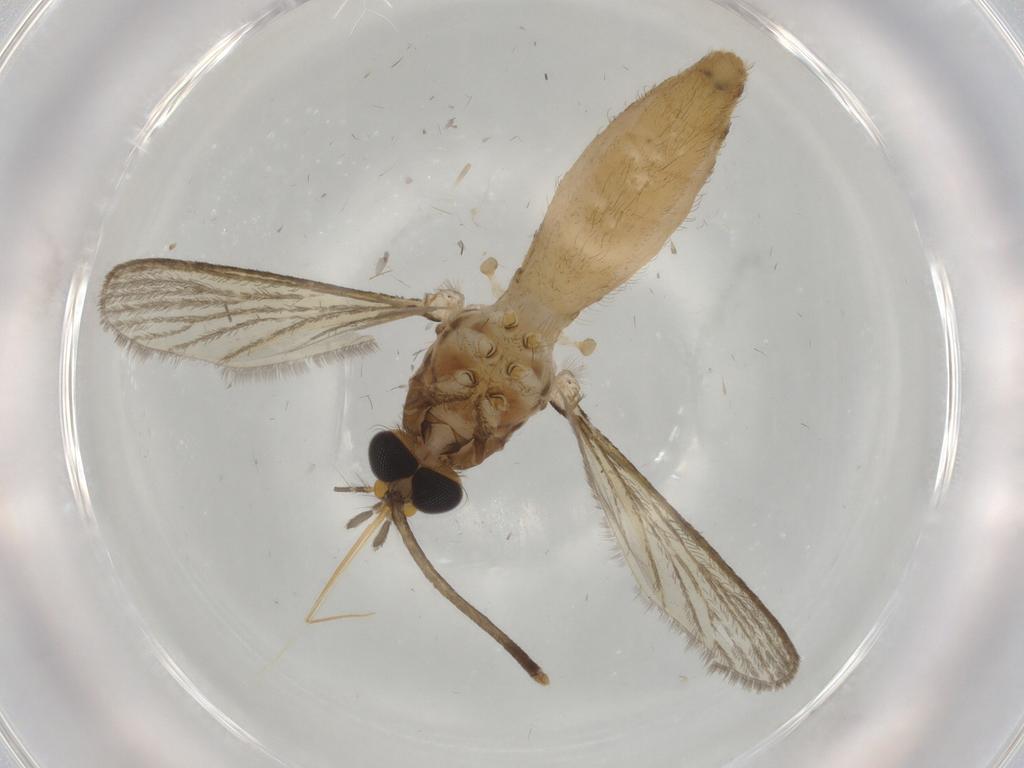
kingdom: Animalia
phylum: Arthropoda
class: Insecta
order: Diptera
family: Culicidae
